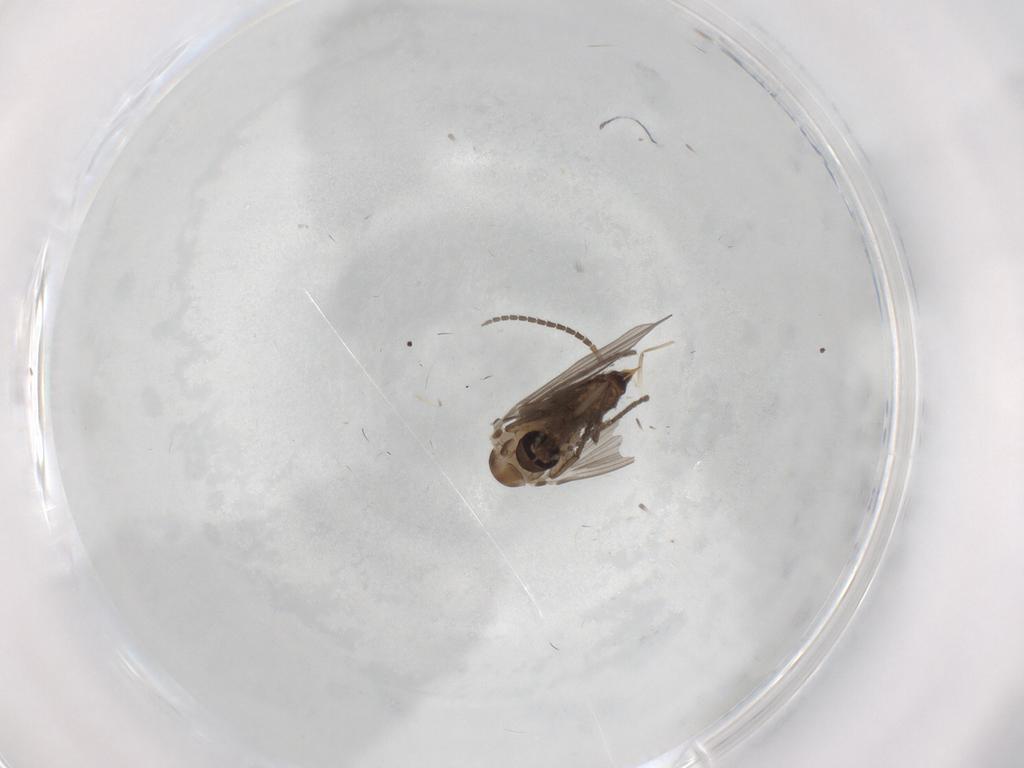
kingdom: Animalia
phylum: Arthropoda
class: Insecta
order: Diptera
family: Psychodidae
